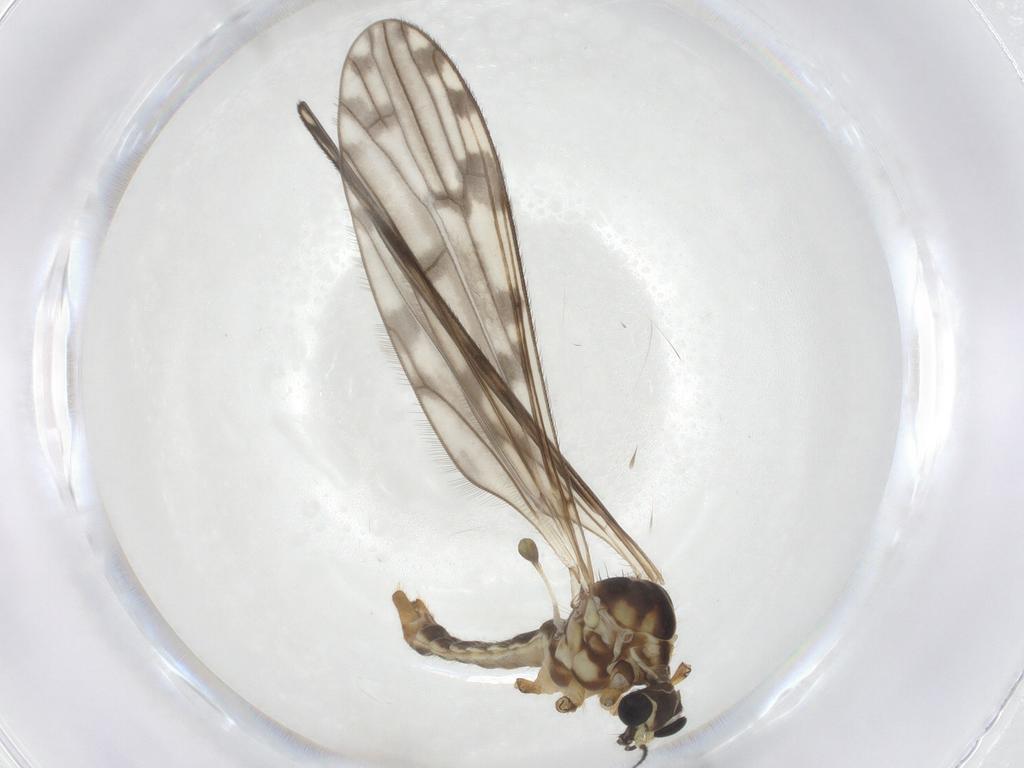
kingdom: Animalia
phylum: Arthropoda
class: Insecta
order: Diptera
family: Limoniidae
